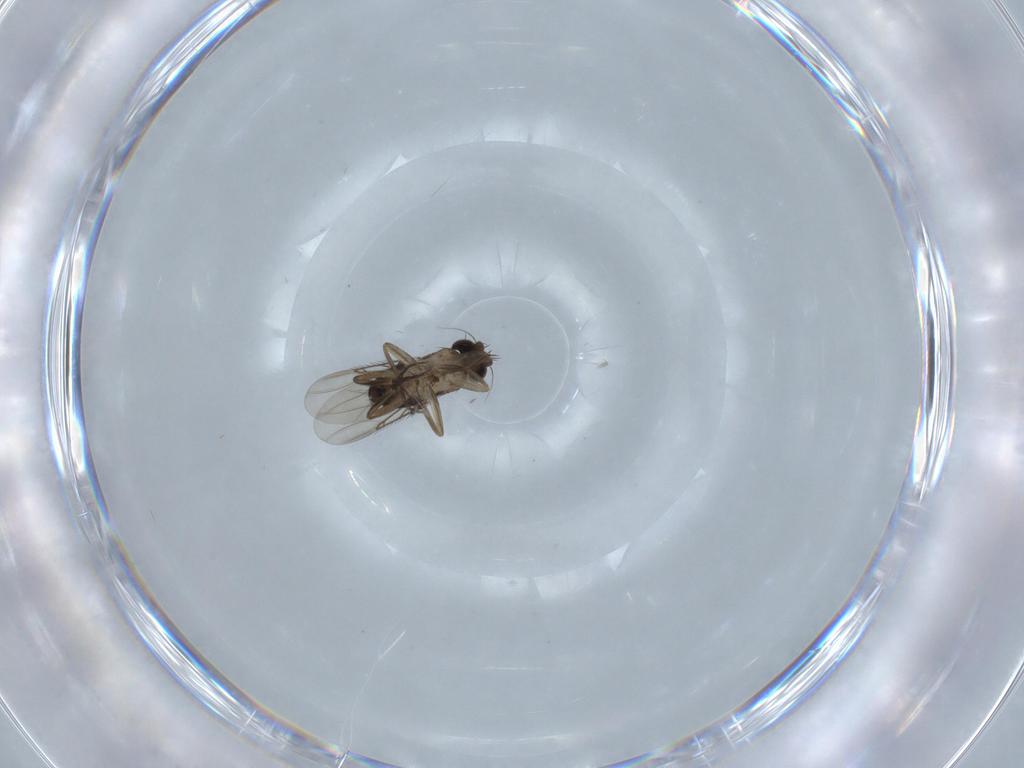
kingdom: Animalia
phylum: Arthropoda
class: Insecta
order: Diptera
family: Ceratopogonidae
